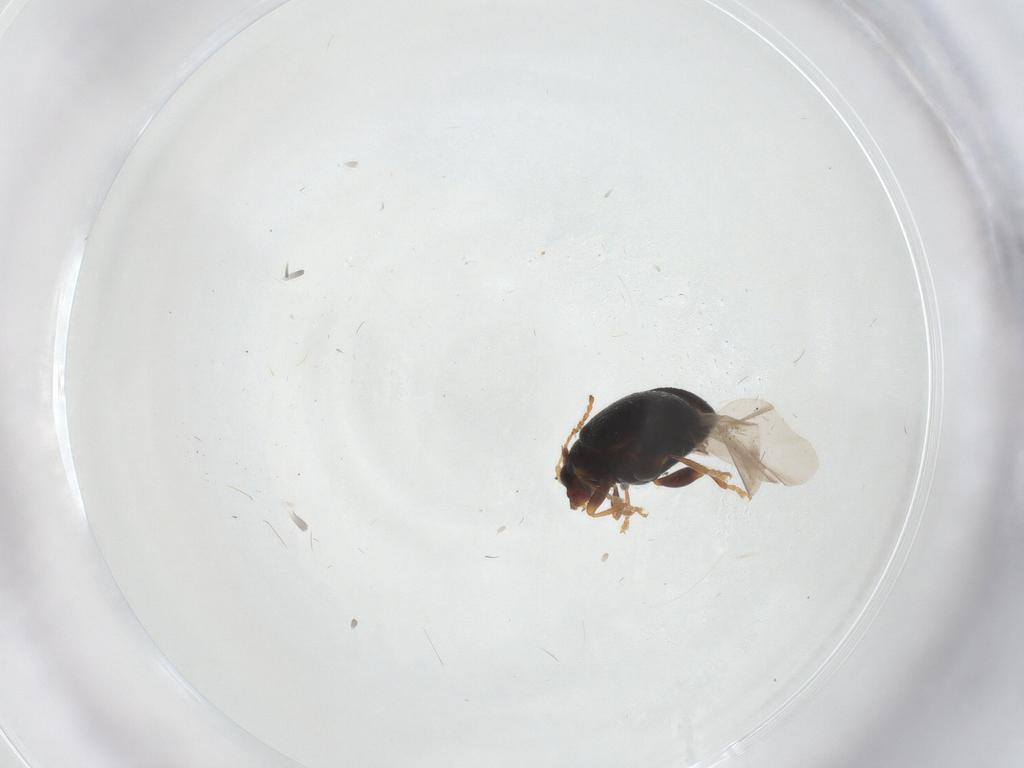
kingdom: Animalia
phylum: Arthropoda
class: Insecta
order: Coleoptera
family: Chrysomelidae
